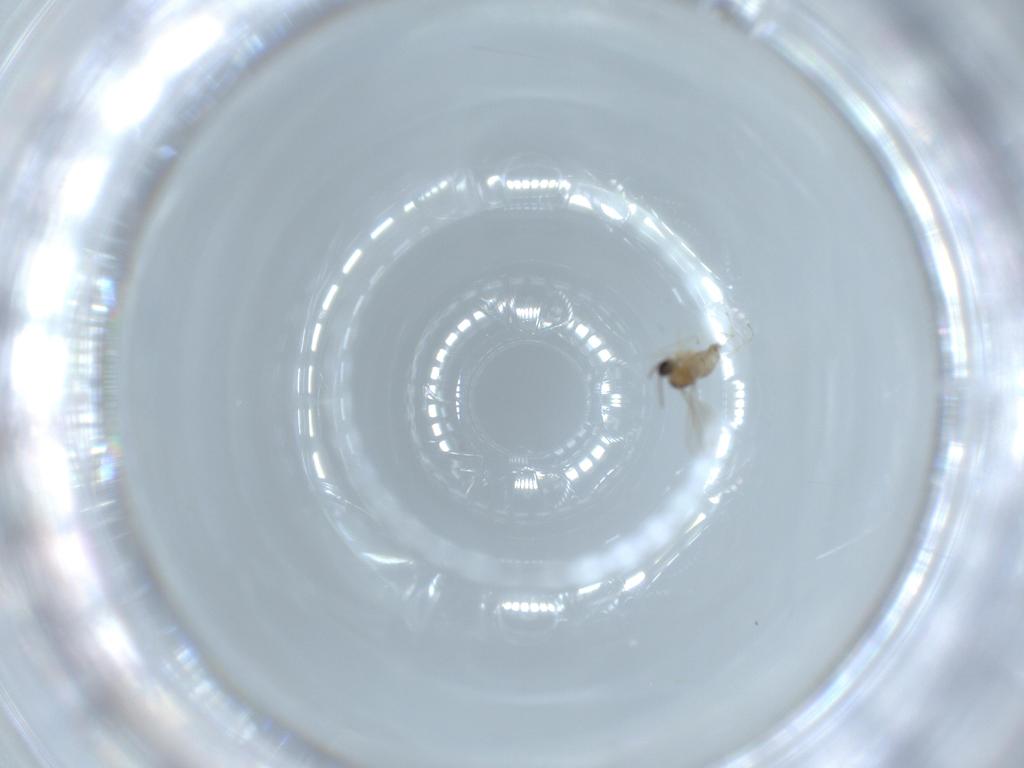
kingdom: Animalia
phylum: Arthropoda
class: Insecta
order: Diptera
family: Cecidomyiidae
